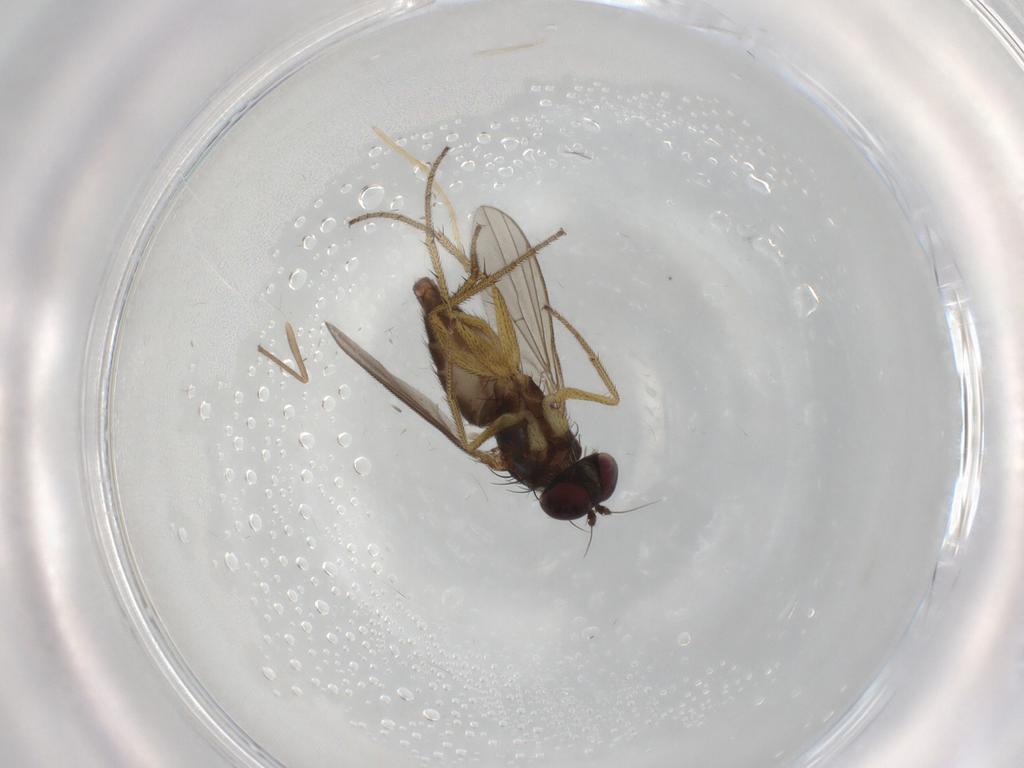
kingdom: Animalia
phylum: Arthropoda
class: Insecta
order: Diptera
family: Dolichopodidae
